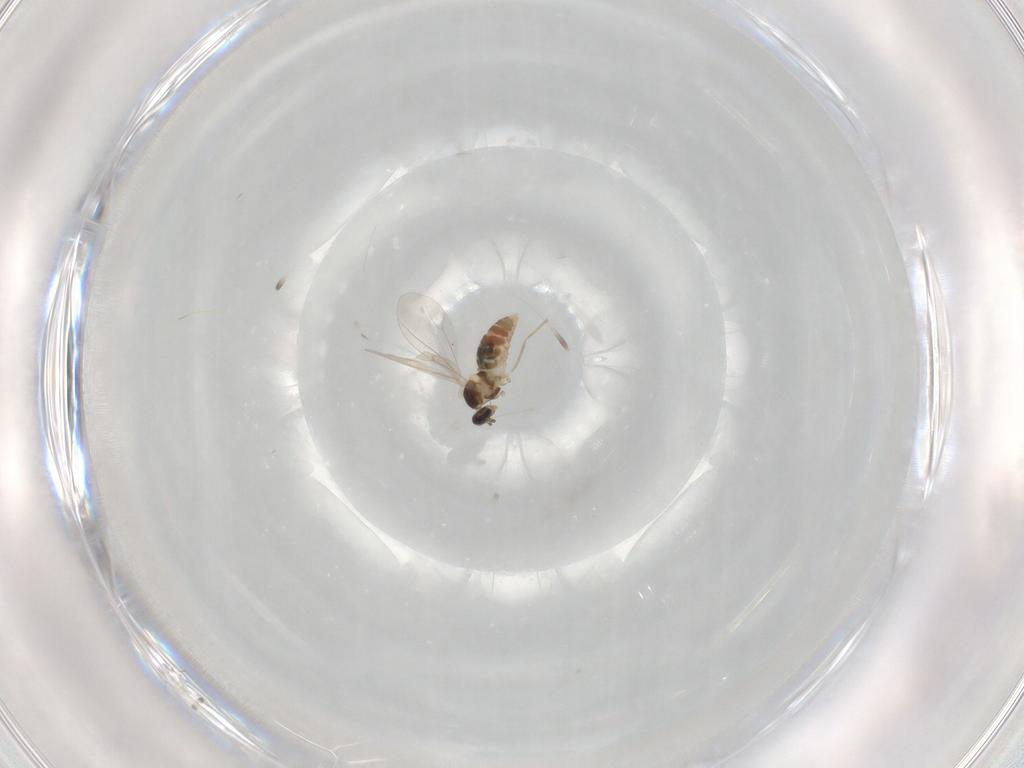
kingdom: Animalia
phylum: Arthropoda
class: Insecta
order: Diptera
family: Cecidomyiidae
